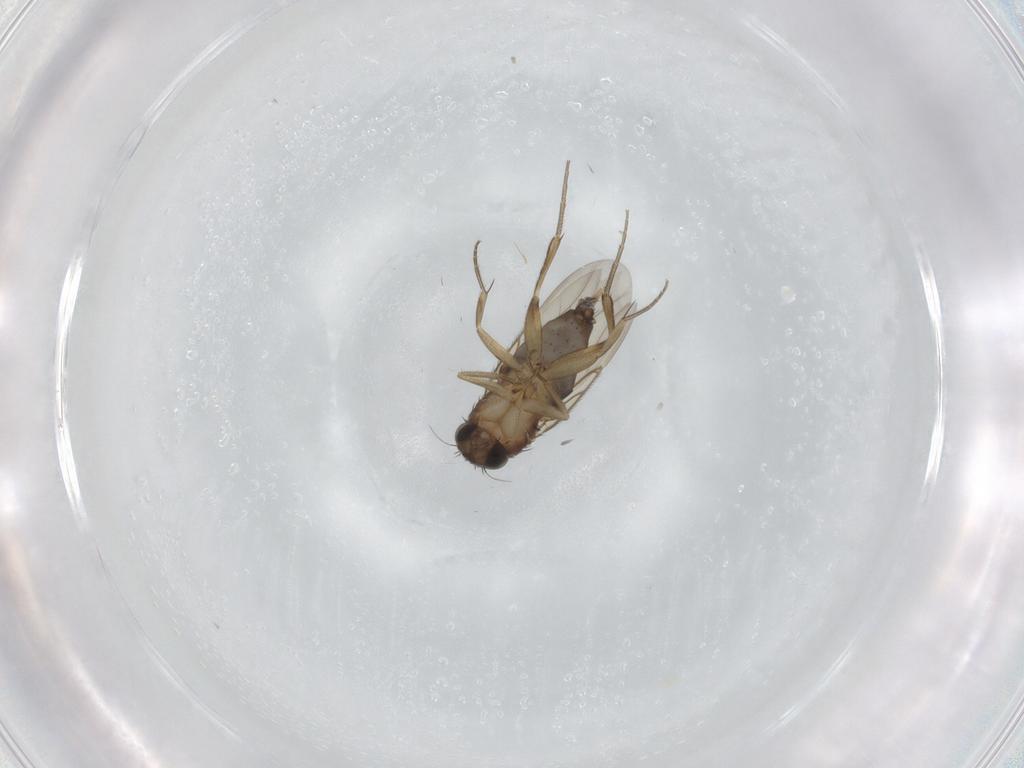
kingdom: Animalia
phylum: Arthropoda
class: Insecta
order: Diptera
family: Phoridae
